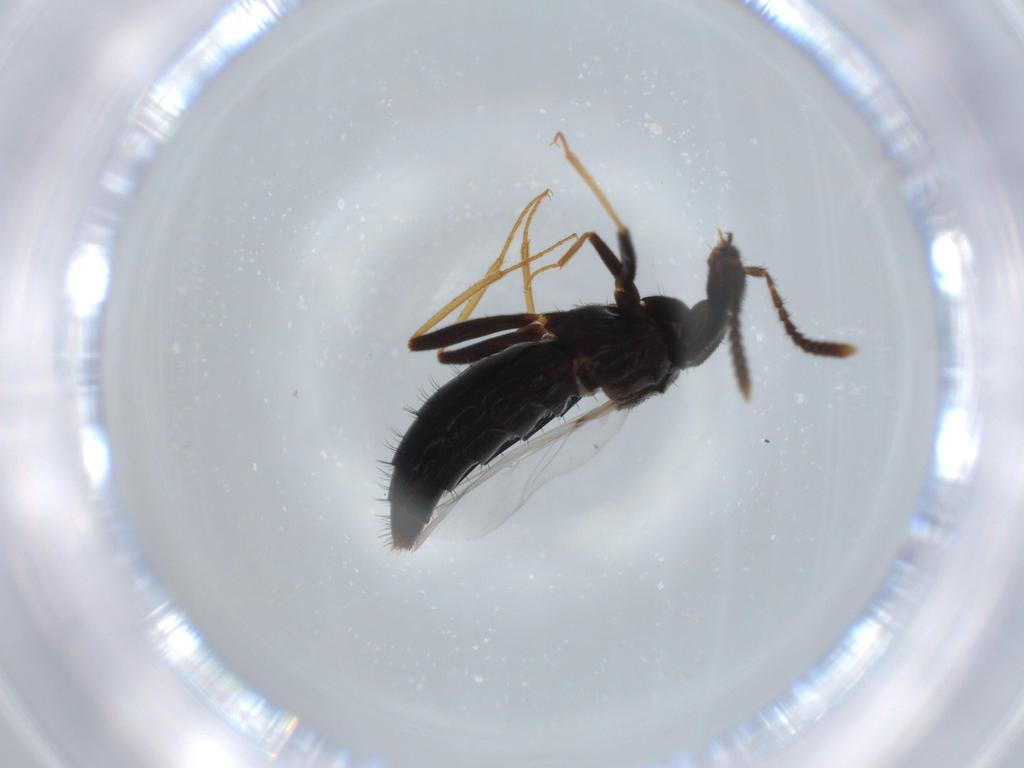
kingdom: Animalia
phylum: Arthropoda
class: Insecta
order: Coleoptera
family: Staphylinidae
